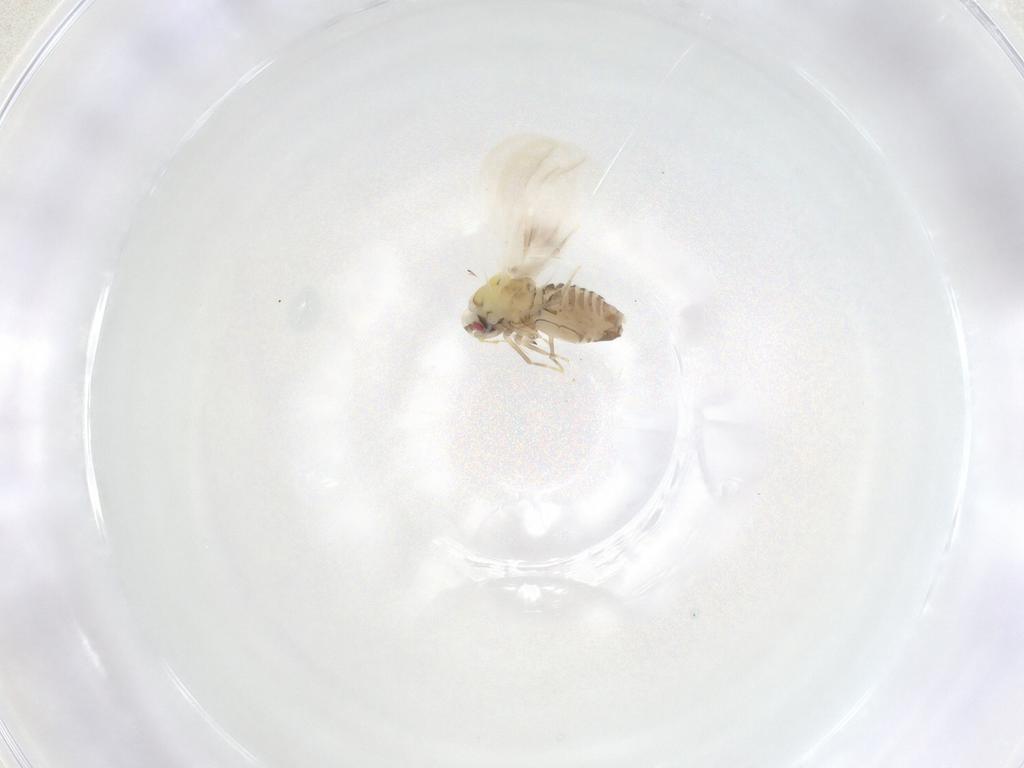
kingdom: Animalia
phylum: Arthropoda
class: Insecta
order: Hemiptera
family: Aleyrodidae
